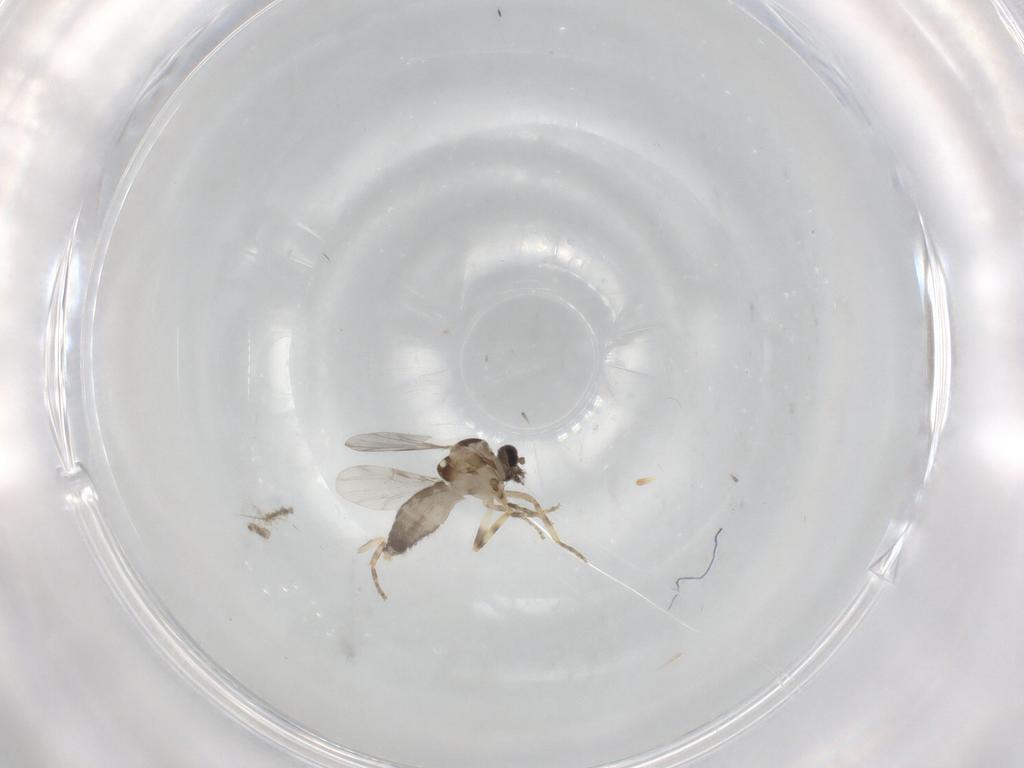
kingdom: Animalia
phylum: Arthropoda
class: Insecta
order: Diptera
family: Ceratopogonidae
